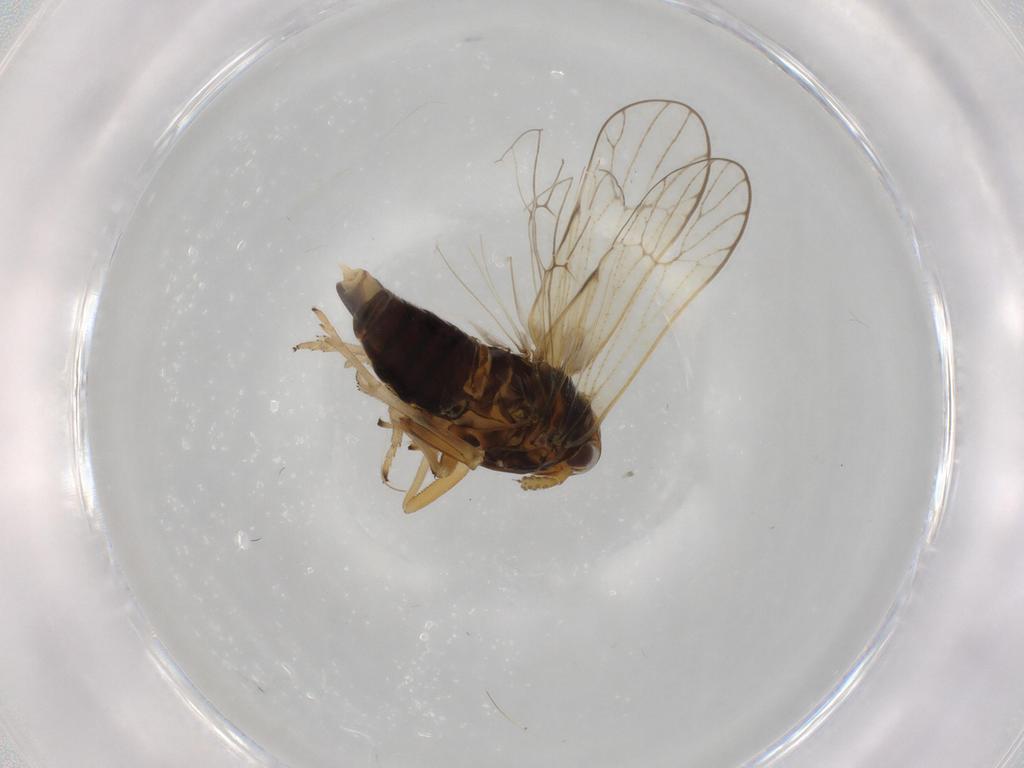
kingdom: Animalia
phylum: Arthropoda
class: Insecta
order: Hemiptera
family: Delphacidae
